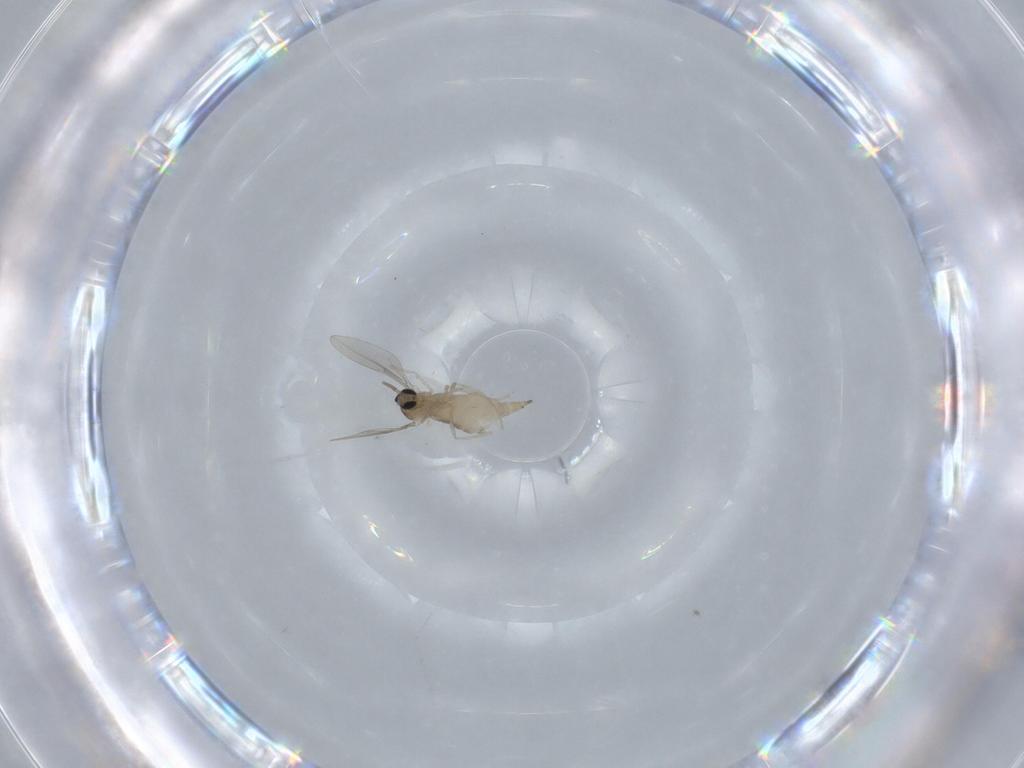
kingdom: Animalia
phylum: Arthropoda
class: Insecta
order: Diptera
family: Cecidomyiidae
